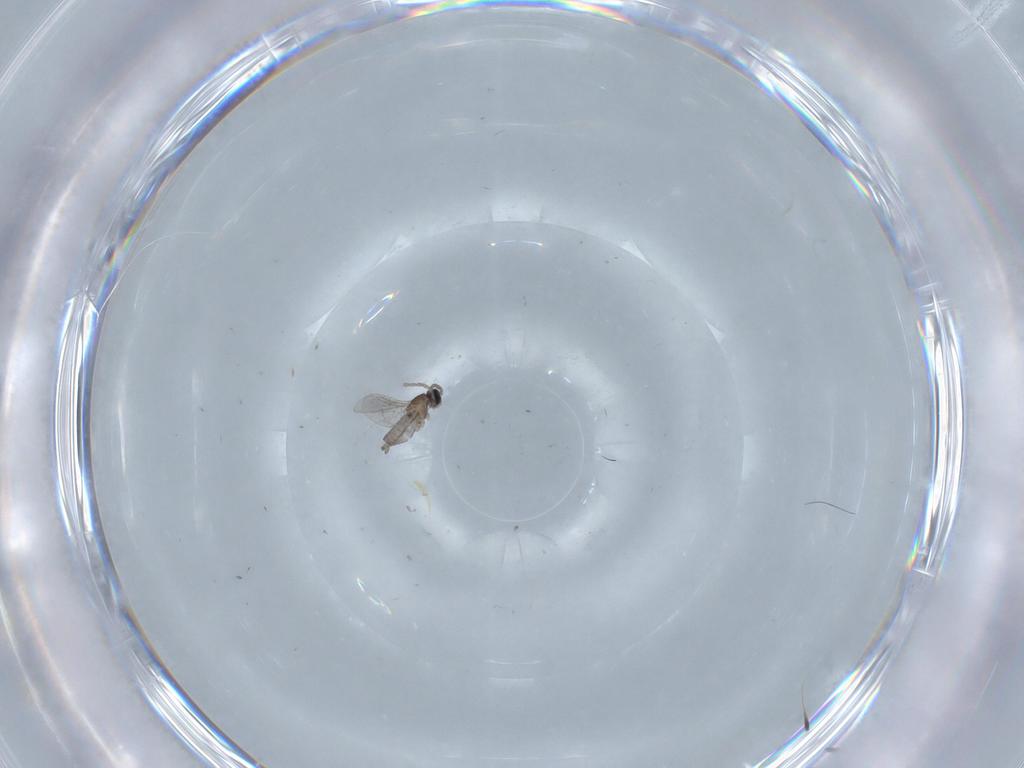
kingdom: Animalia
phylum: Arthropoda
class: Insecta
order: Diptera
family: Cecidomyiidae
